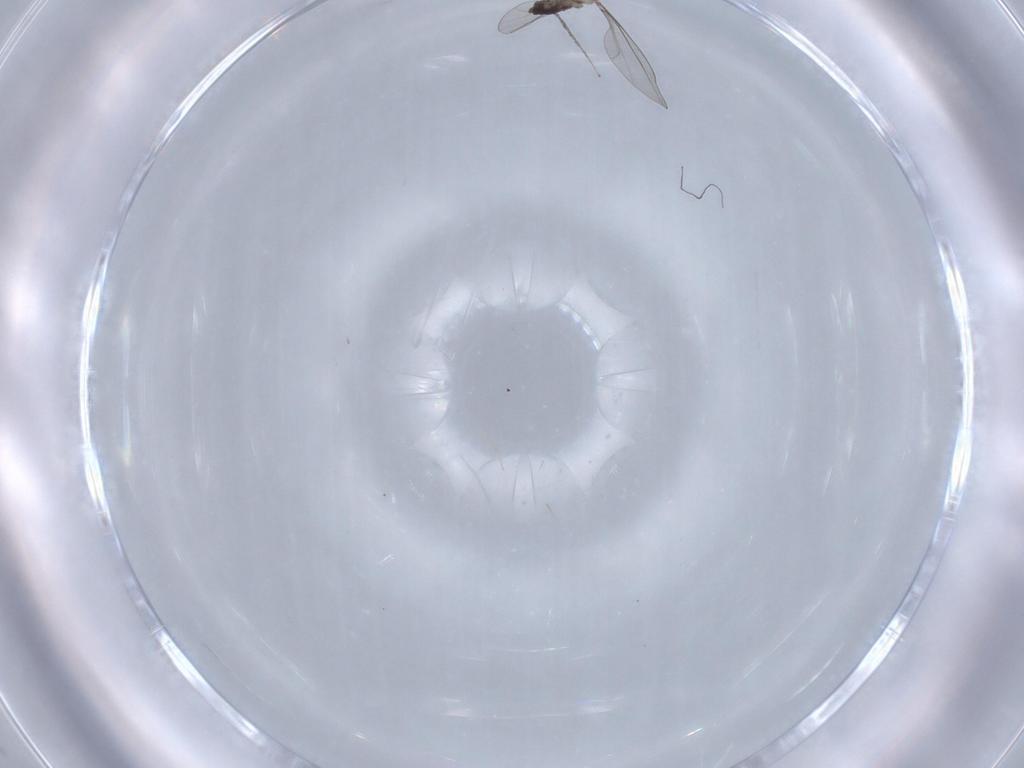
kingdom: Animalia
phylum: Arthropoda
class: Insecta
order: Diptera
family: Cecidomyiidae
